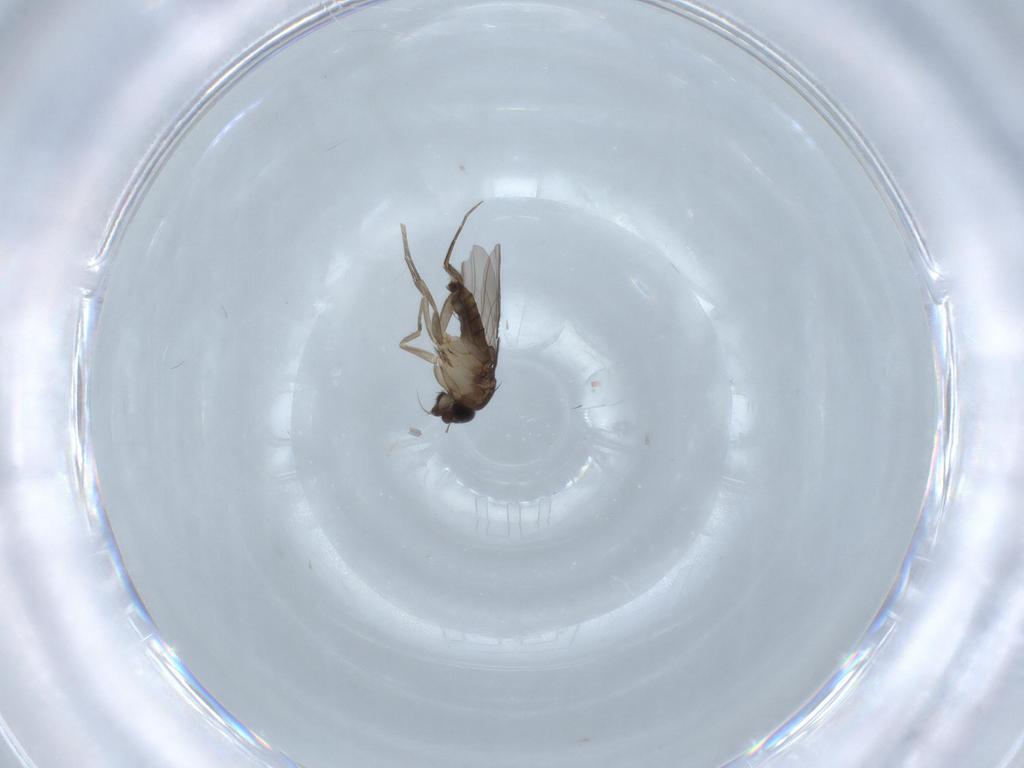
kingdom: Animalia
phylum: Arthropoda
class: Insecta
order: Diptera
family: Phoridae
